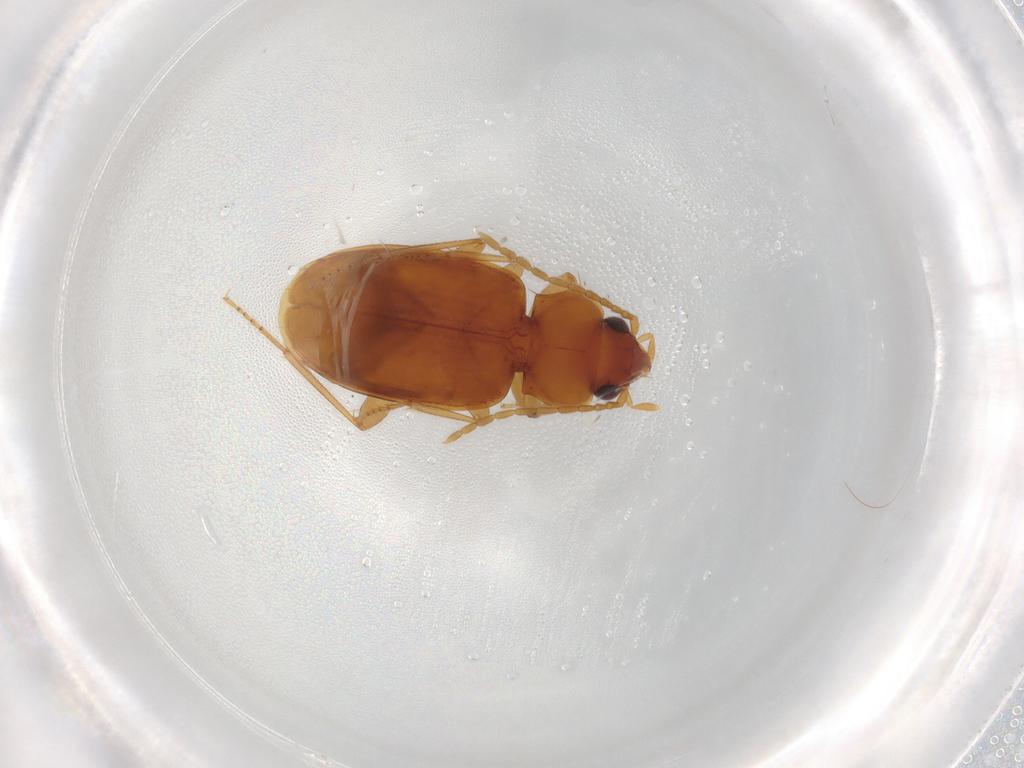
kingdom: Animalia
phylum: Arthropoda
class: Insecta
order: Coleoptera
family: Carabidae
